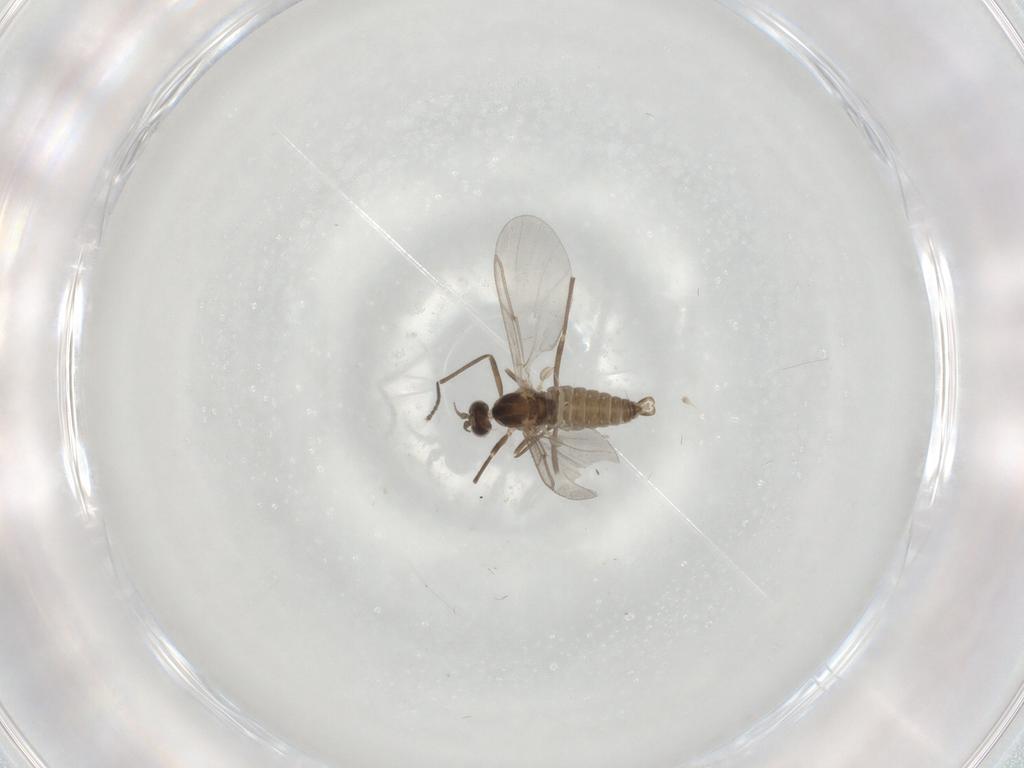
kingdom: Animalia
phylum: Arthropoda
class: Insecta
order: Diptera
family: Cecidomyiidae
